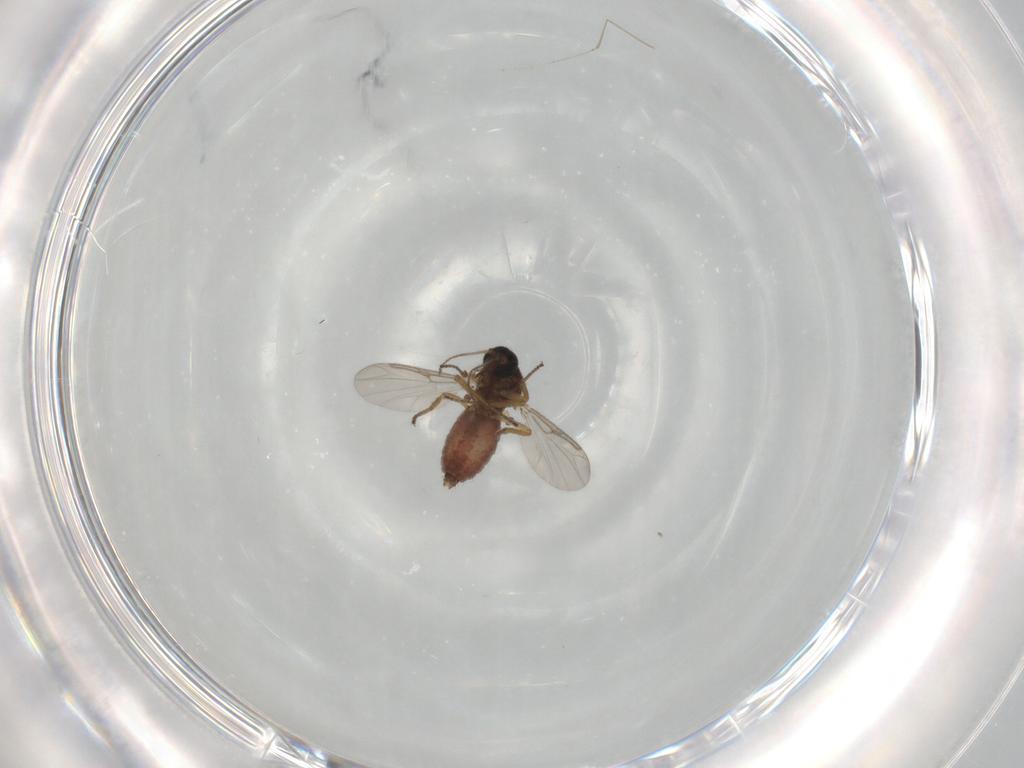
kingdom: Animalia
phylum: Arthropoda
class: Insecta
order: Diptera
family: Ceratopogonidae
